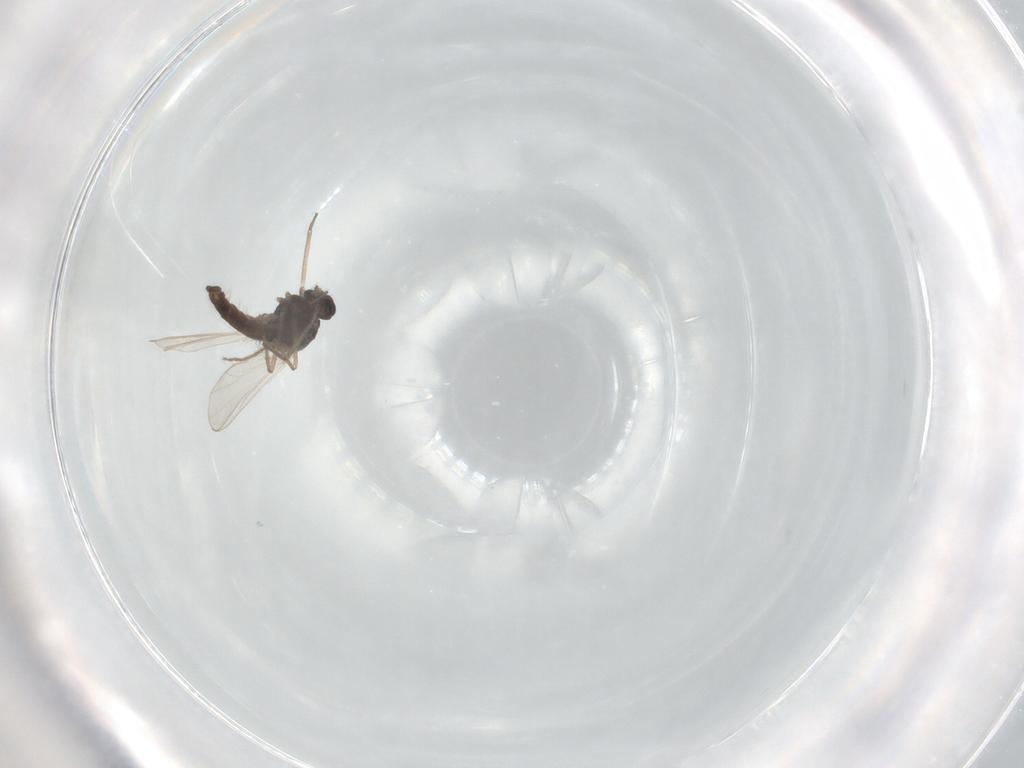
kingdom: Animalia
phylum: Arthropoda
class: Insecta
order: Diptera
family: Chironomidae
